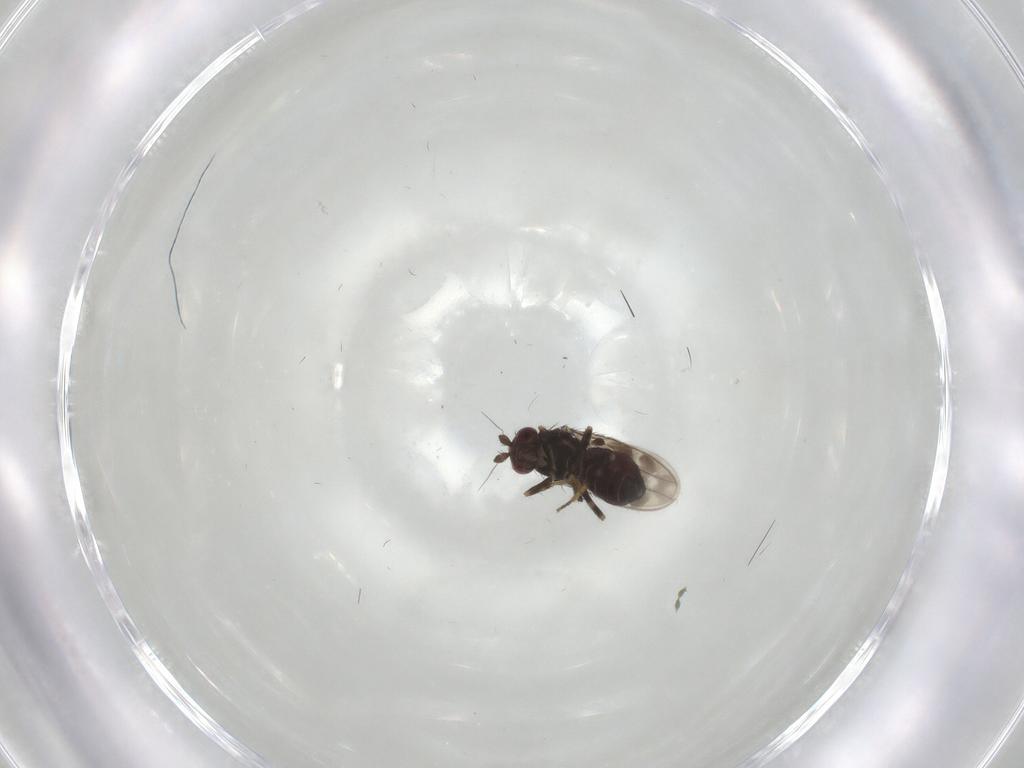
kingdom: Animalia
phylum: Arthropoda
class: Insecta
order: Diptera
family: Sphaeroceridae
